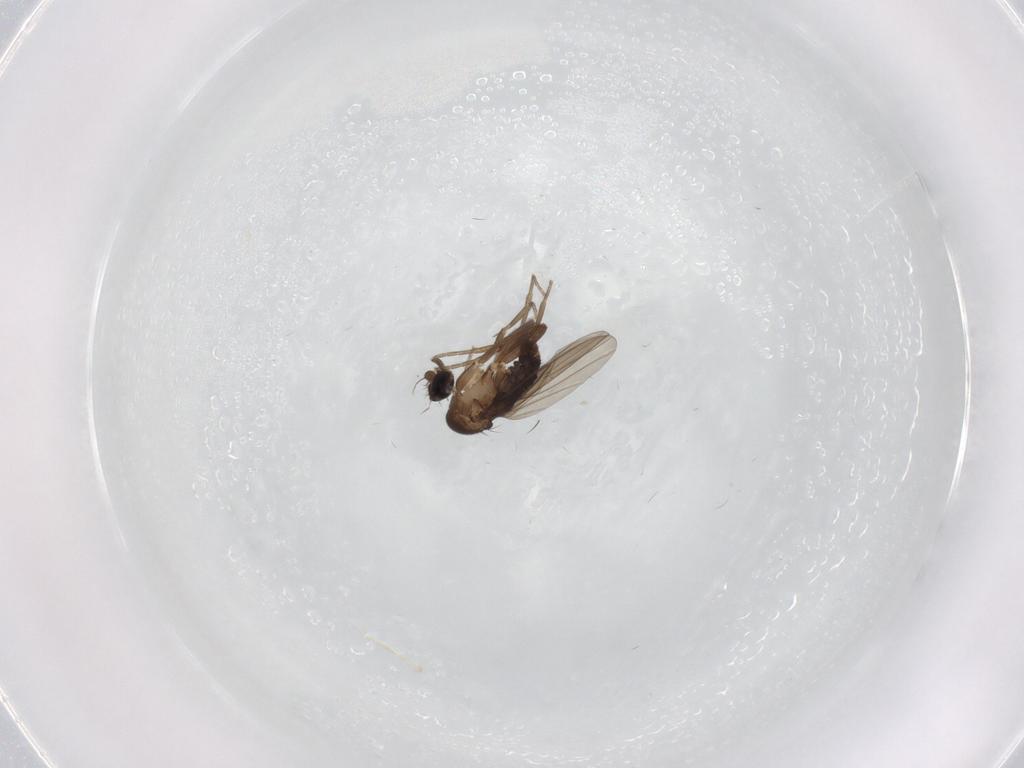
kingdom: Animalia
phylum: Arthropoda
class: Insecta
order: Diptera
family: Phoridae
